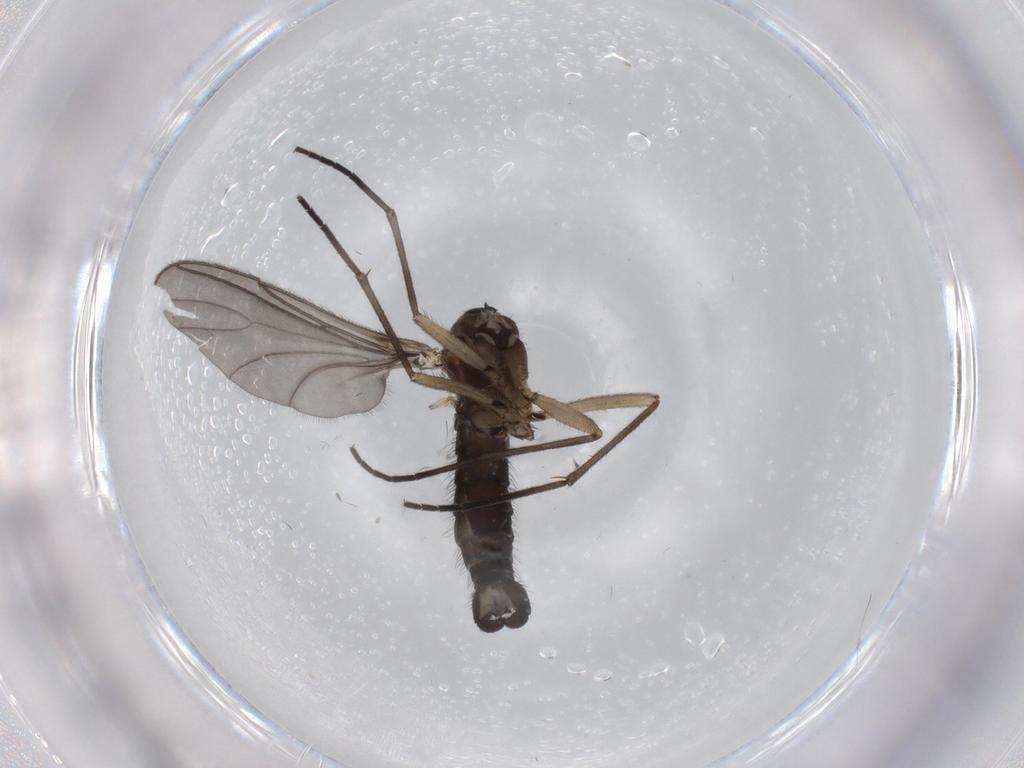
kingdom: Animalia
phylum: Arthropoda
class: Insecta
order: Diptera
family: Sciaridae
